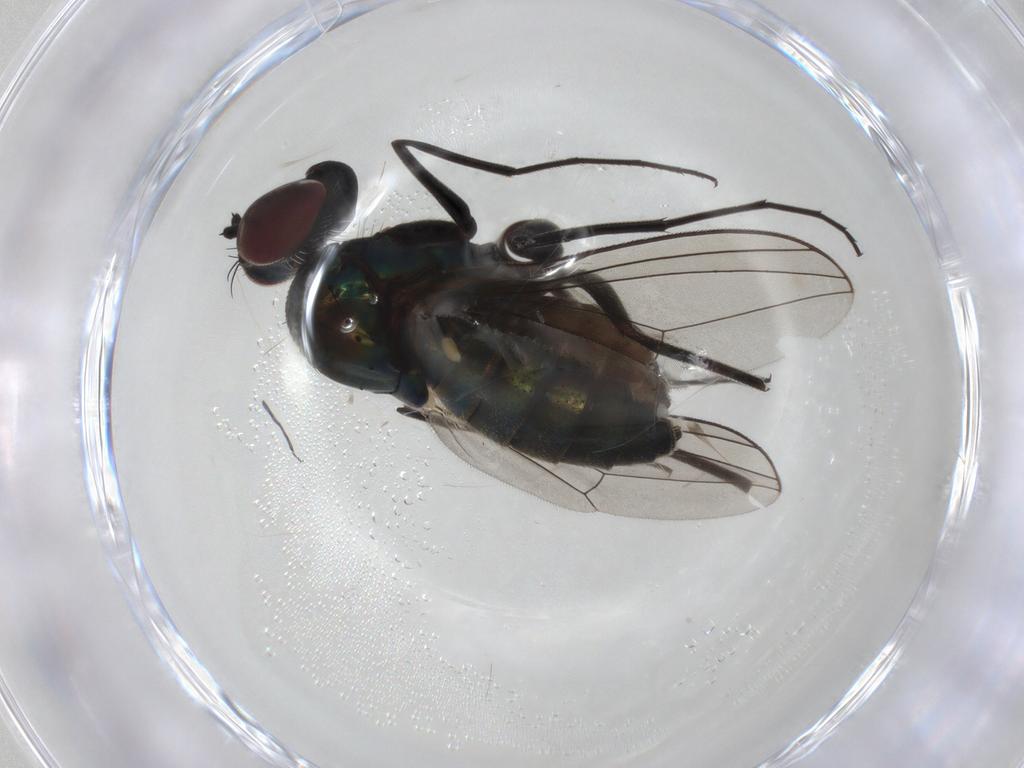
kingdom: Animalia
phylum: Arthropoda
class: Insecta
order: Diptera
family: Dolichopodidae
